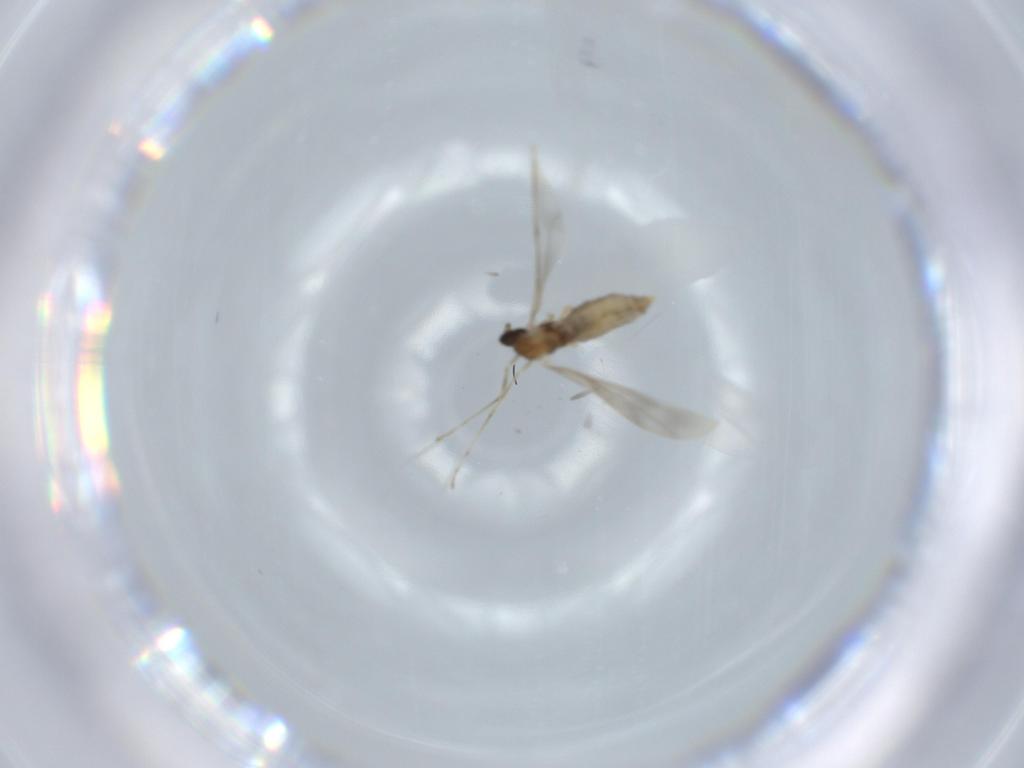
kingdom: Animalia
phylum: Arthropoda
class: Insecta
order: Diptera
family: Cecidomyiidae
